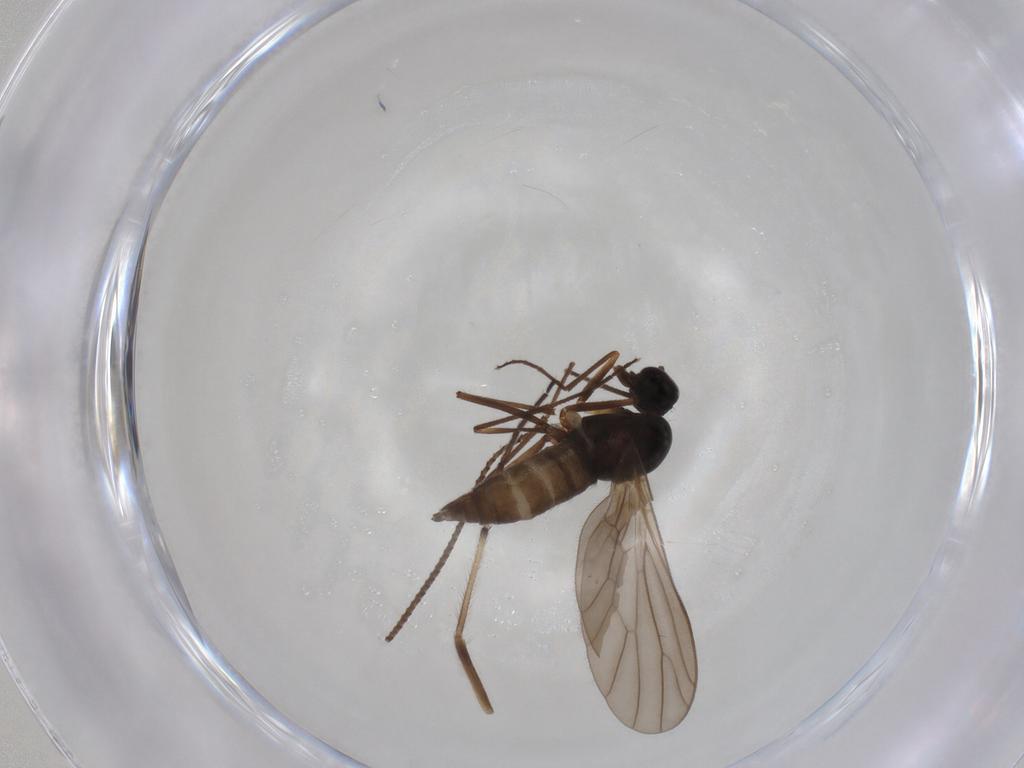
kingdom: Animalia
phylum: Arthropoda
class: Insecta
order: Diptera
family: Empididae
